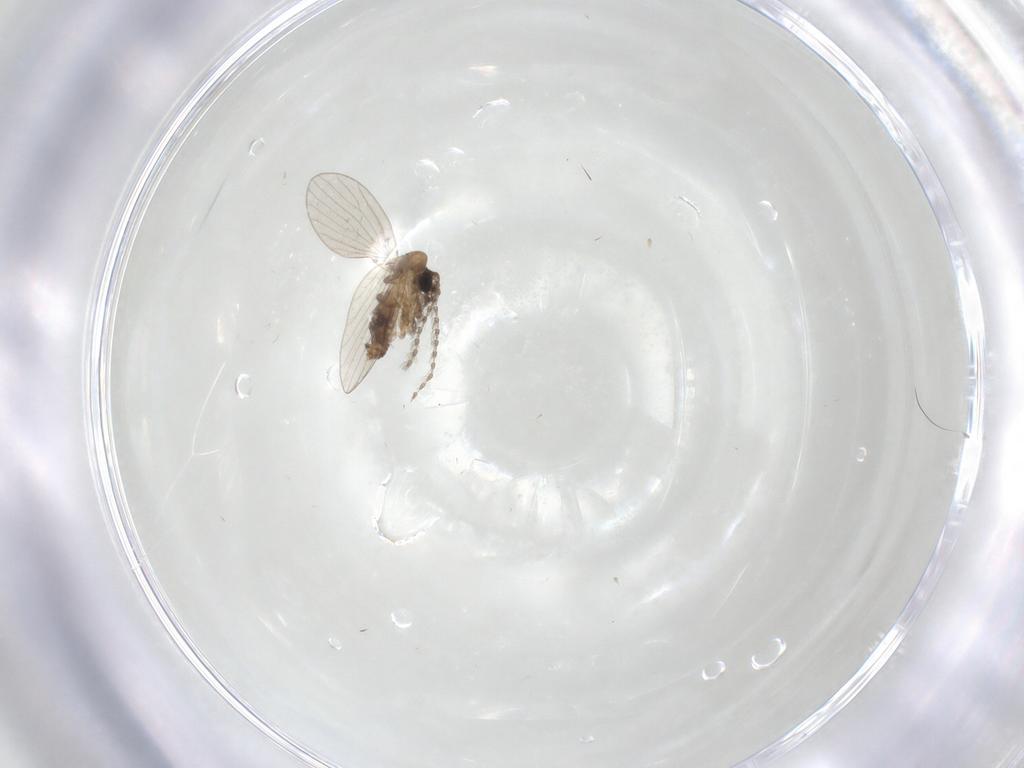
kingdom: Animalia
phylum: Arthropoda
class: Insecta
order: Diptera
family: Psychodidae
